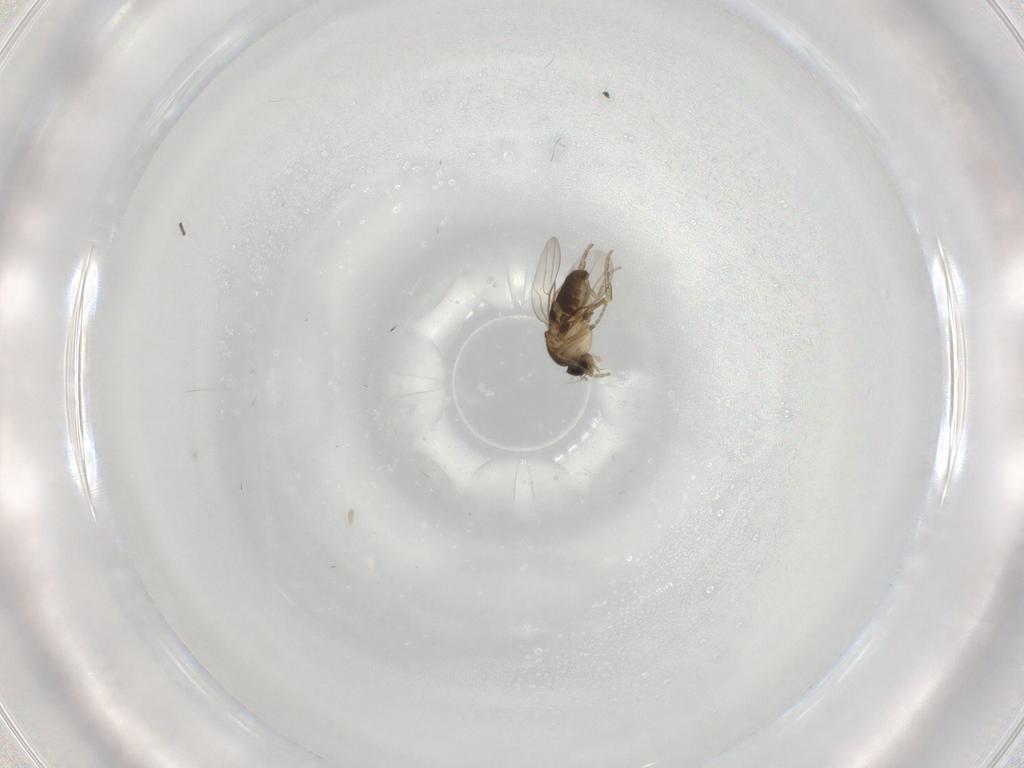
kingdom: Animalia
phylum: Arthropoda
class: Insecta
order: Diptera
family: Cecidomyiidae
